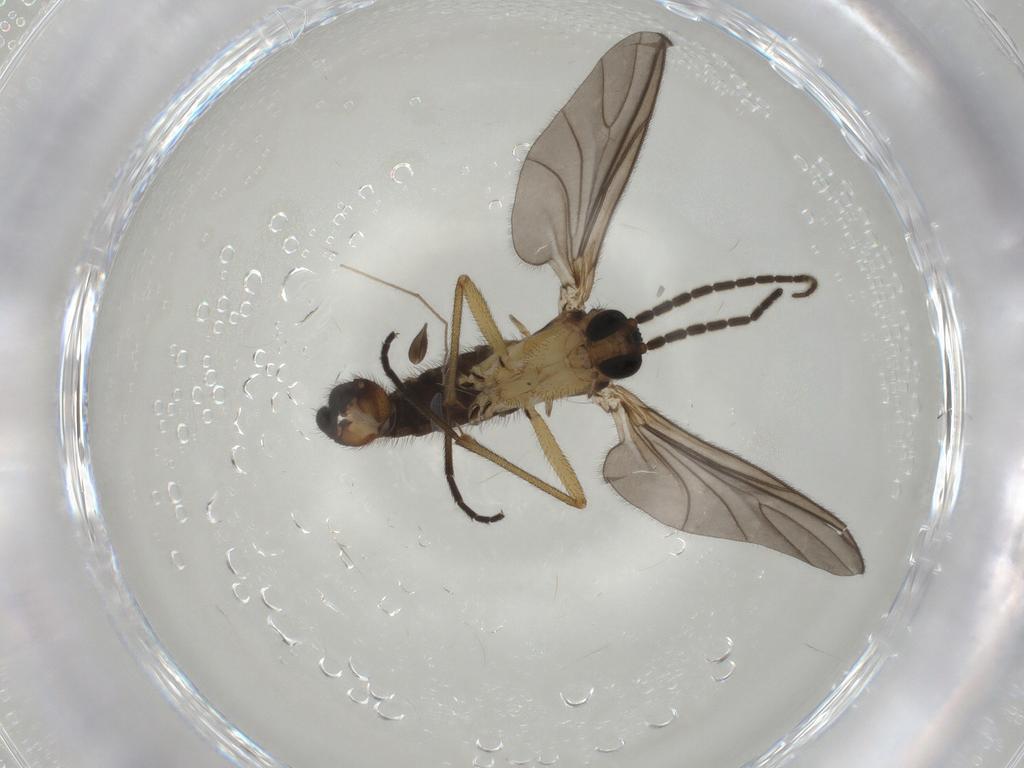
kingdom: Animalia
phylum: Arthropoda
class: Insecta
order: Diptera
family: Sciaridae
